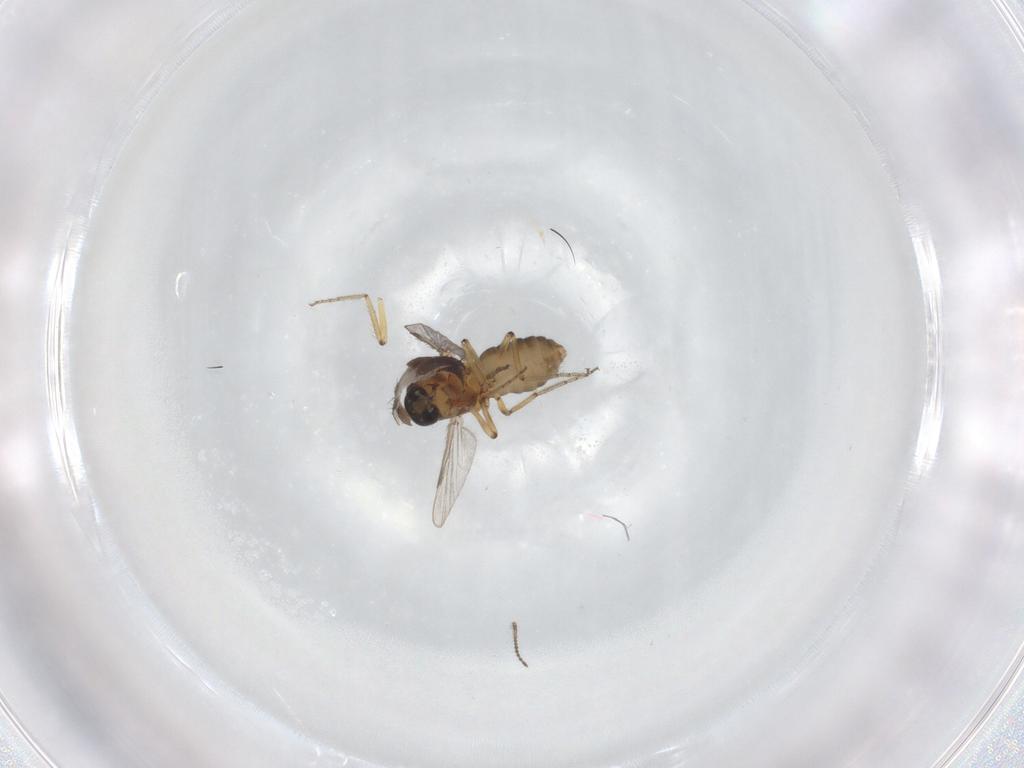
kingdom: Animalia
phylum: Arthropoda
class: Insecta
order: Diptera
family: Ceratopogonidae
